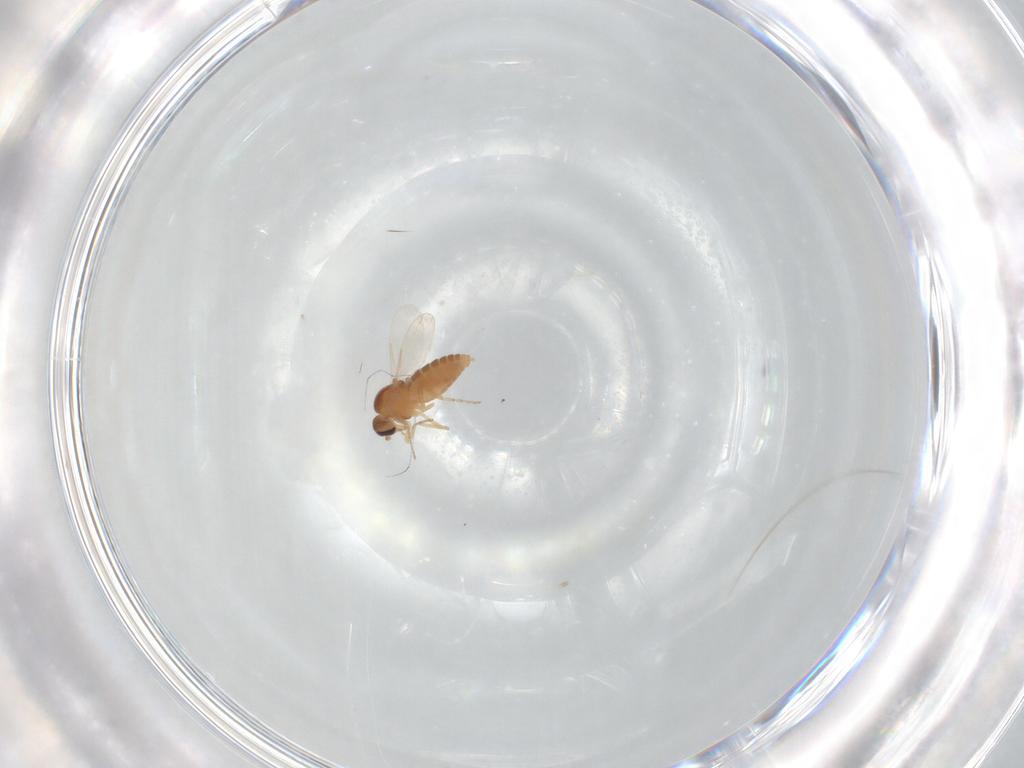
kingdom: Animalia
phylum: Arthropoda
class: Insecta
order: Diptera
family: Ceratopogonidae
